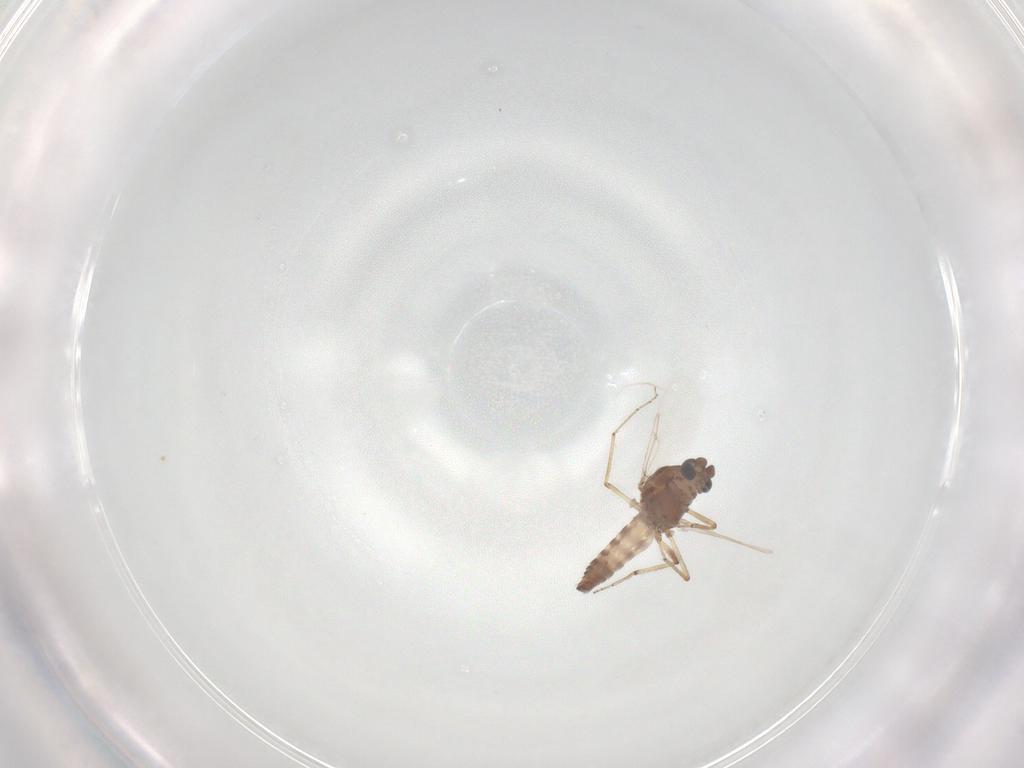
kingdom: Animalia
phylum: Arthropoda
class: Insecta
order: Diptera
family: Ceratopogonidae
